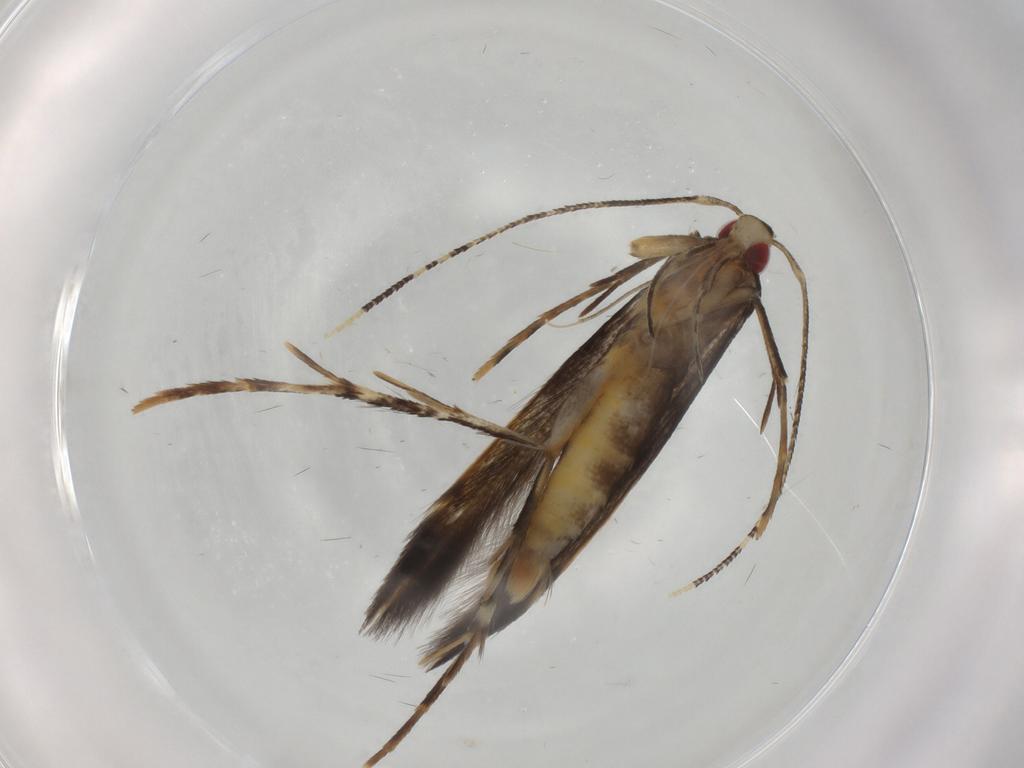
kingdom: Animalia
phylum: Arthropoda
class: Insecta
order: Lepidoptera
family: Cosmopterigidae
